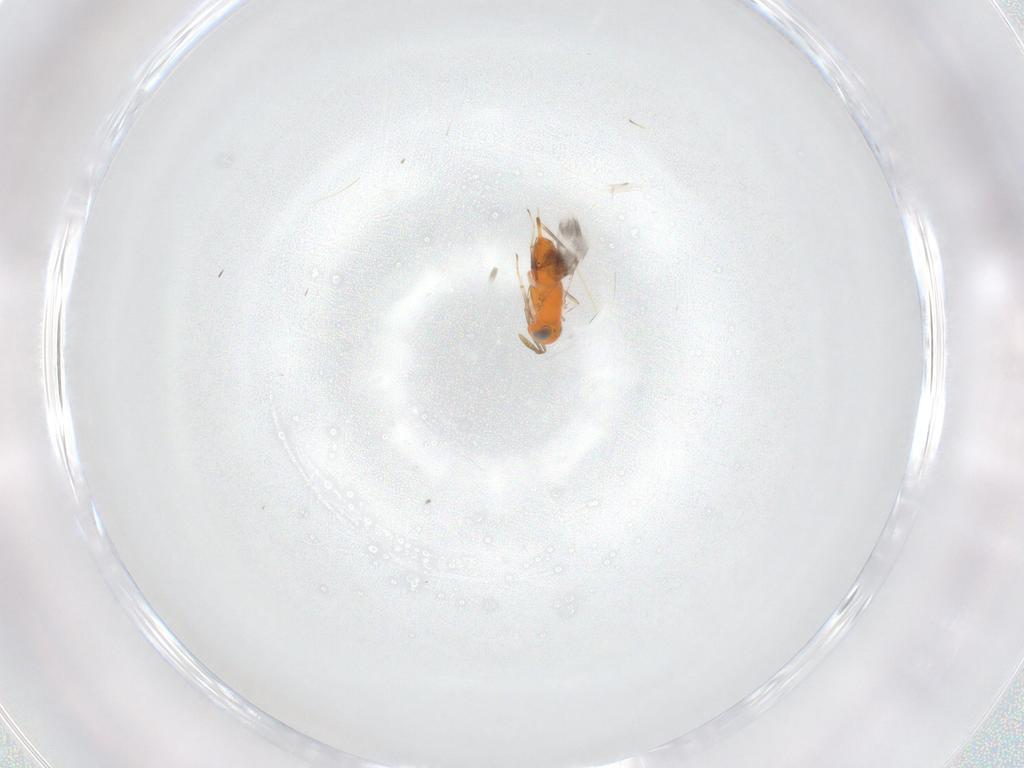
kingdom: Animalia
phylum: Arthropoda
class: Insecta
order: Hymenoptera
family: Encyrtidae
